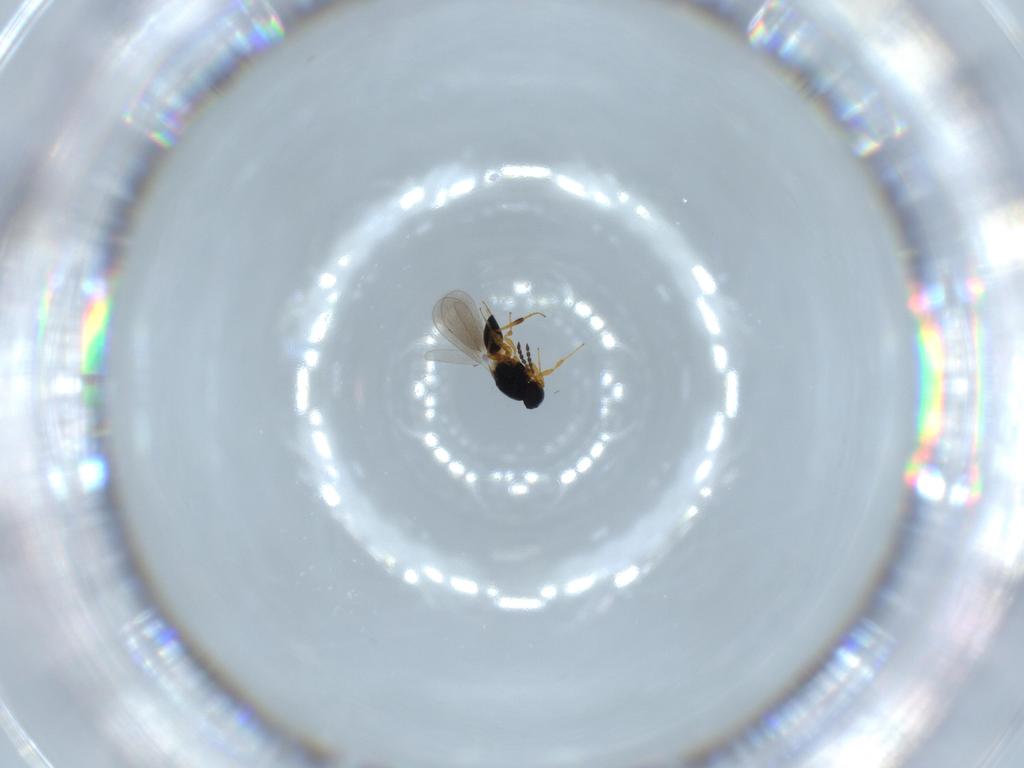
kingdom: Animalia
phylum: Arthropoda
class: Insecta
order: Hymenoptera
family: Platygastridae
